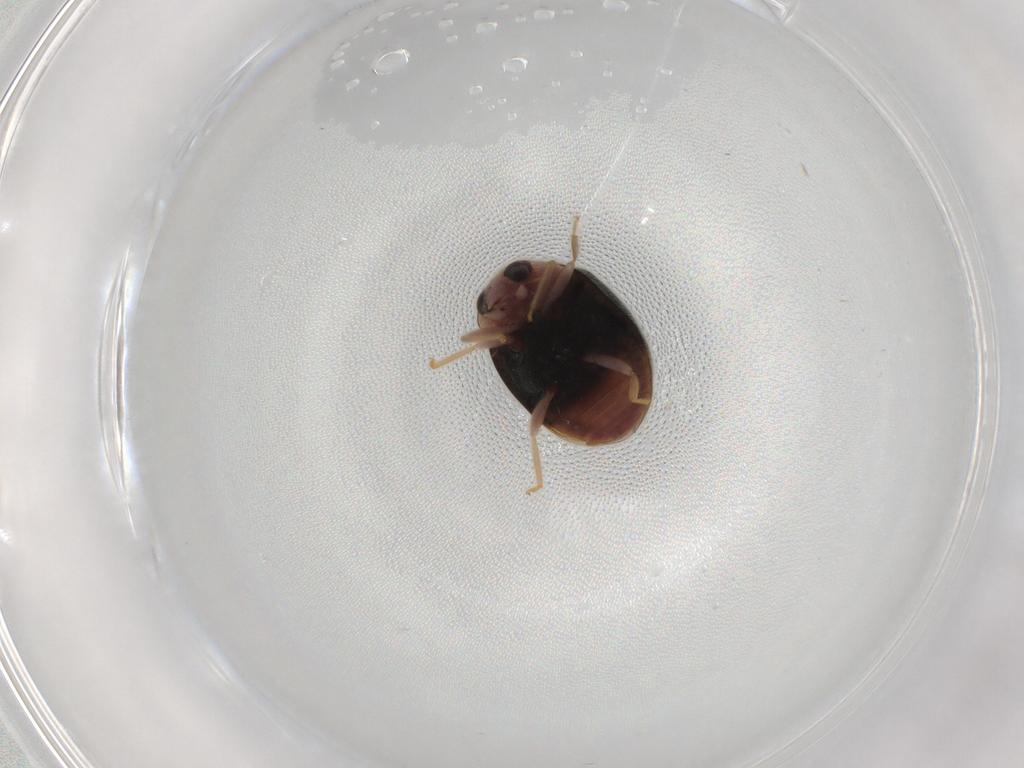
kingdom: Animalia
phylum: Arthropoda
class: Insecta
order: Coleoptera
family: Coccinellidae
